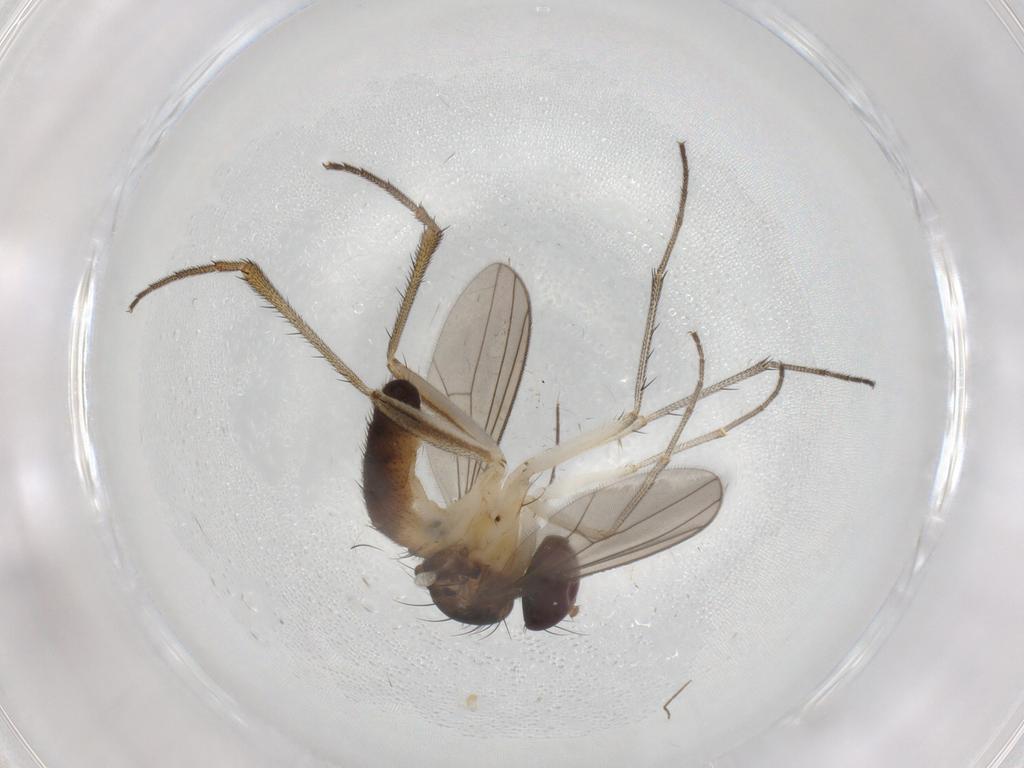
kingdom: Animalia
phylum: Arthropoda
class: Insecta
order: Diptera
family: Dolichopodidae
